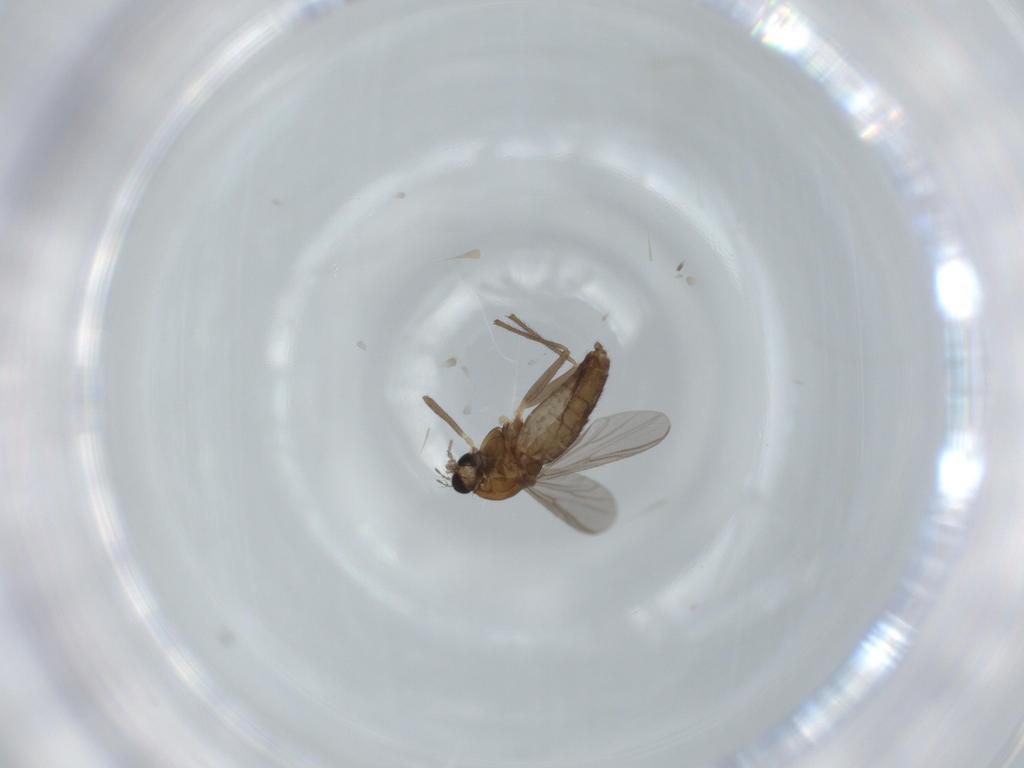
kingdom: Animalia
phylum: Arthropoda
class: Insecta
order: Diptera
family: Chironomidae
